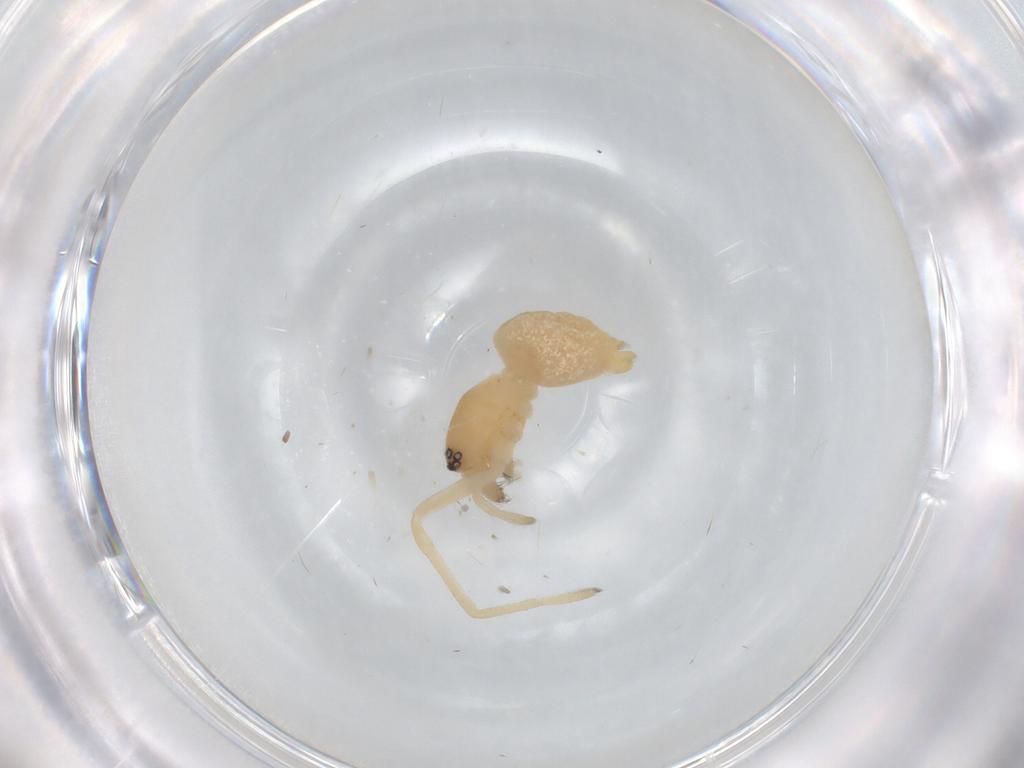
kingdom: Animalia
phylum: Arthropoda
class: Arachnida
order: Araneae
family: Cheiracanthiidae
